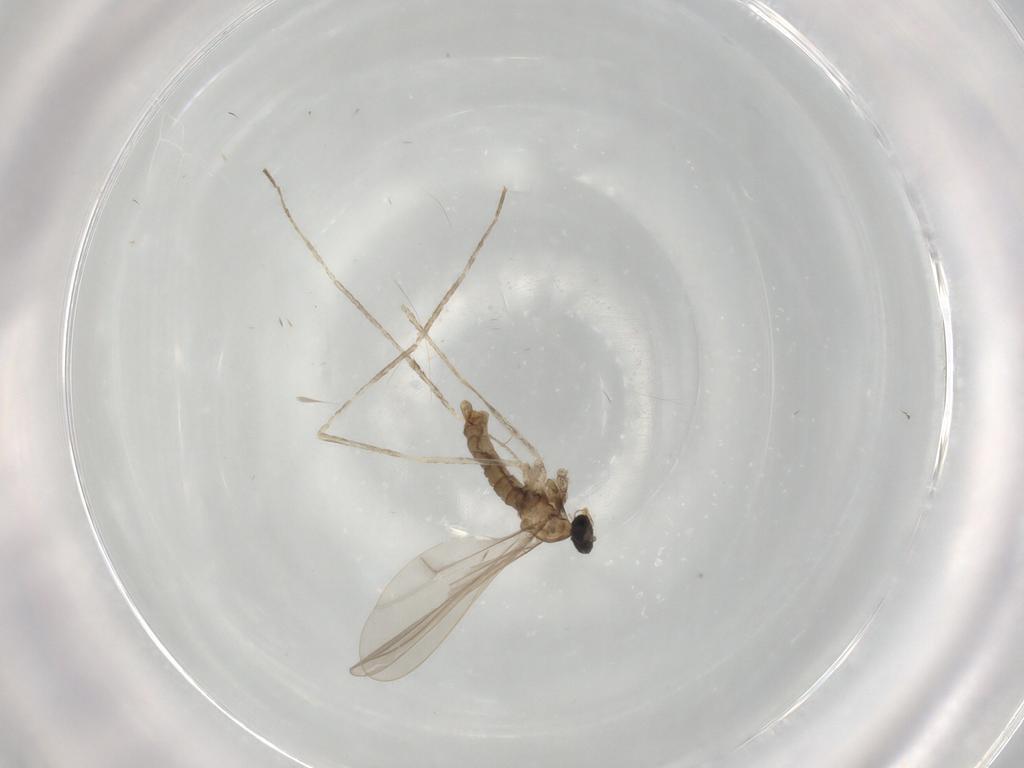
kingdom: Animalia
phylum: Arthropoda
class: Insecta
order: Diptera
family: Cecidomyiidae
